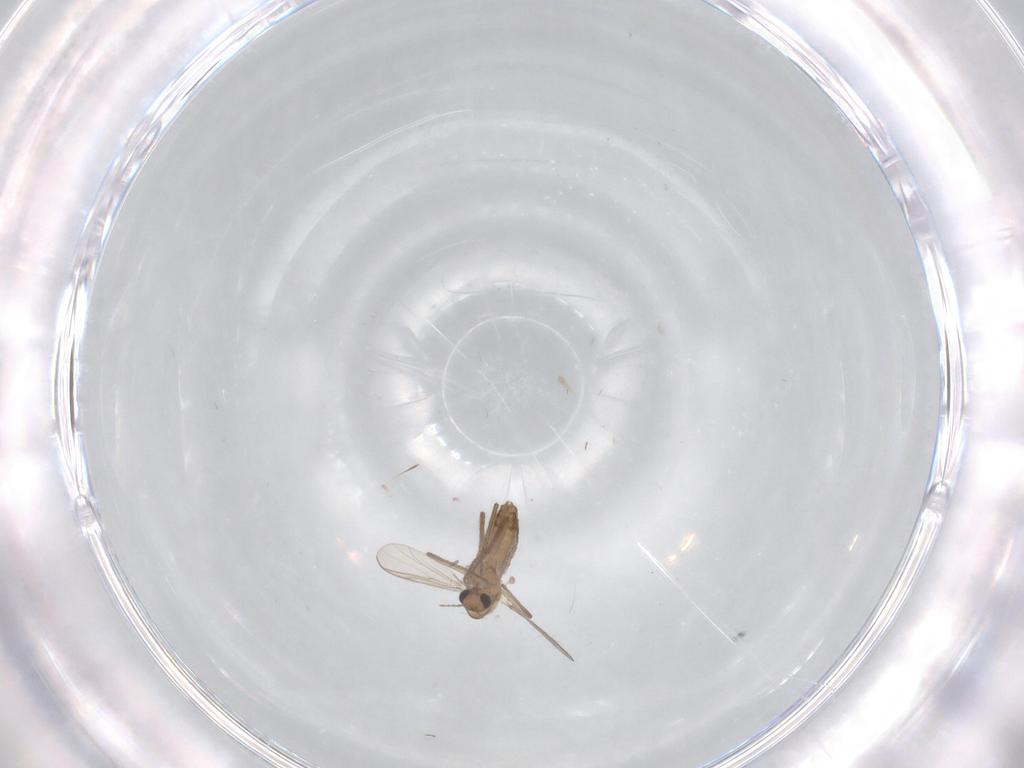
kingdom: Animalia
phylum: Arthropoda
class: Insecta
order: Diptera
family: Chironomidae
